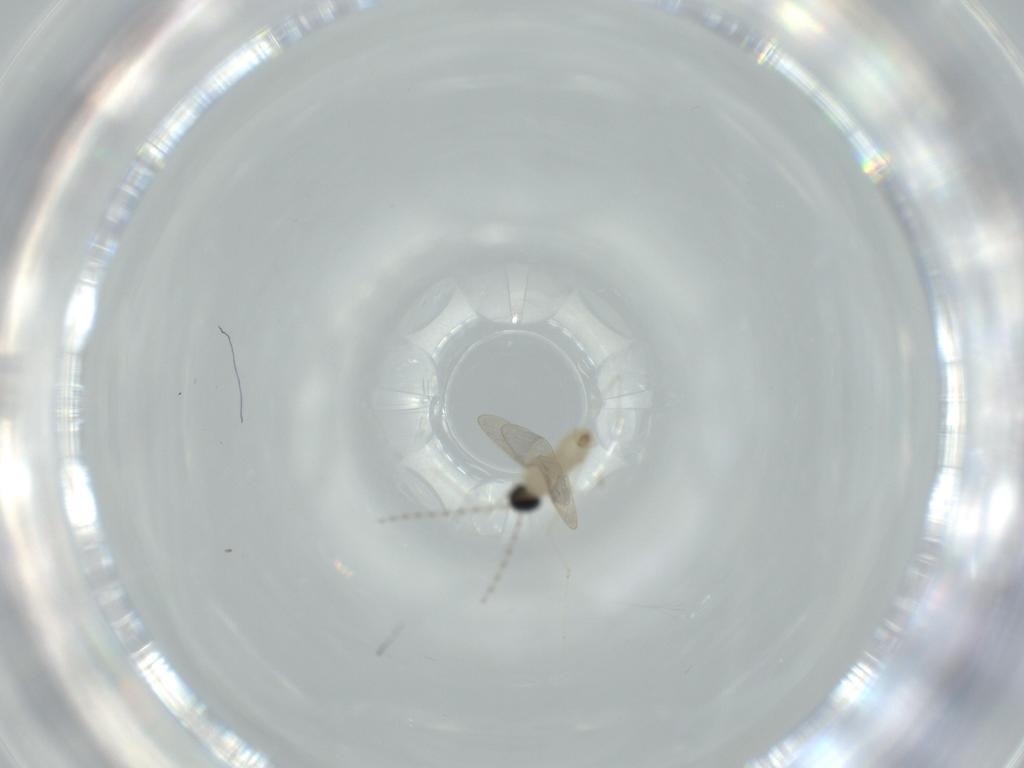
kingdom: Animalia
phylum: Arthropoda
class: Insecta
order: Diptera
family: Cecidomyiidae
